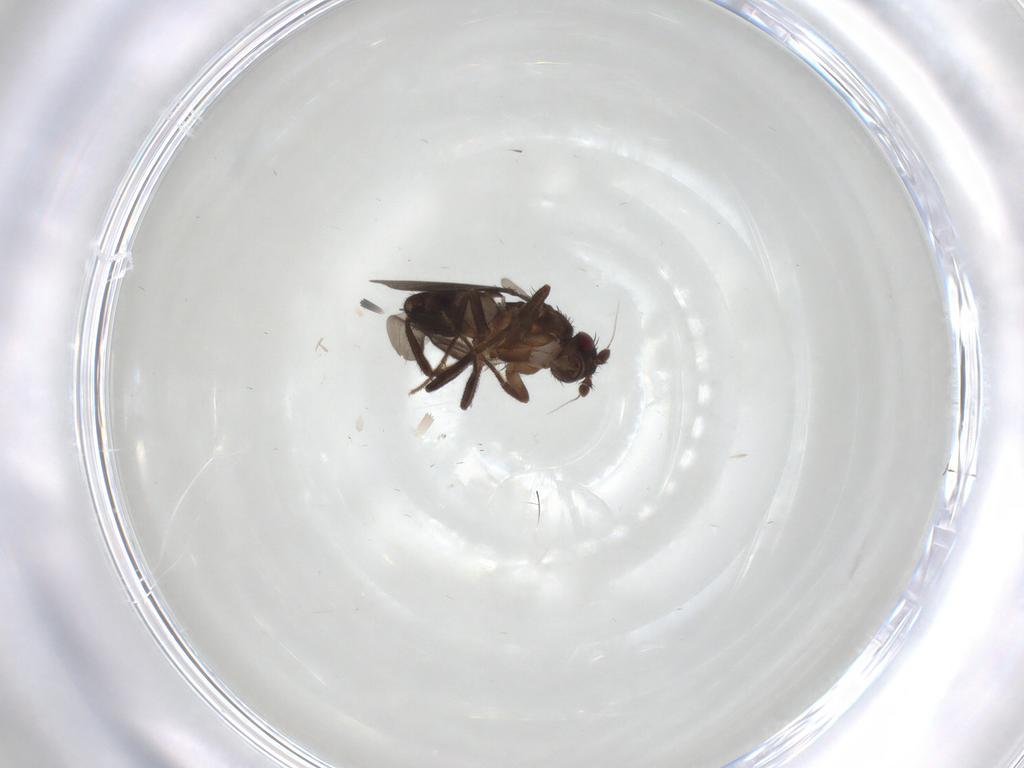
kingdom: Animalia
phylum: Arthropoda
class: Insecta
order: Diptera
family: Sphaeroceridae
